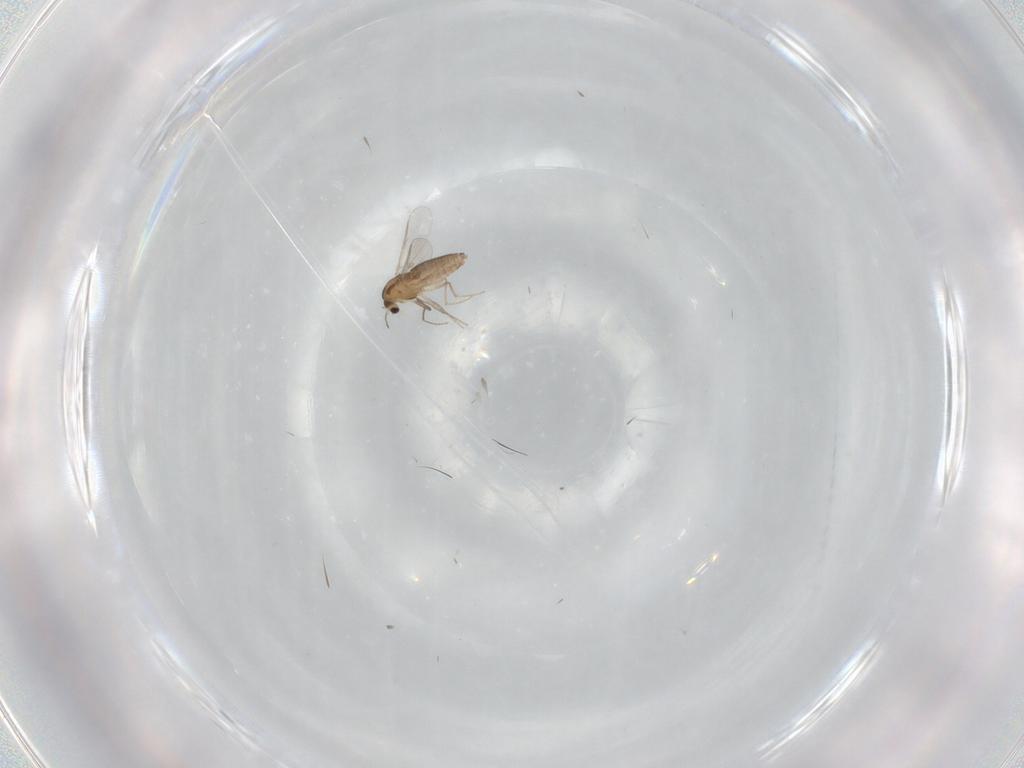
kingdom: Animalia
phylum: Arthropoda
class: Insecta
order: Diptera
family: Chironomidae
